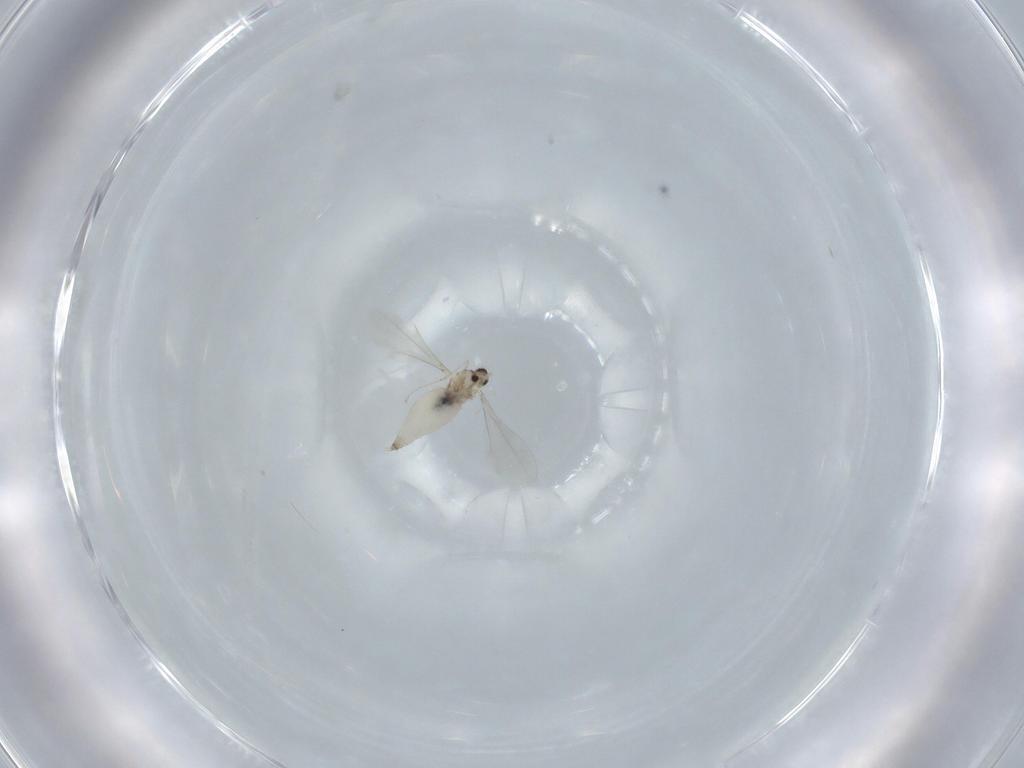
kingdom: Animalia
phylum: Arthropoda
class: Insecta
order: Diptera
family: Cecidomyiidae
